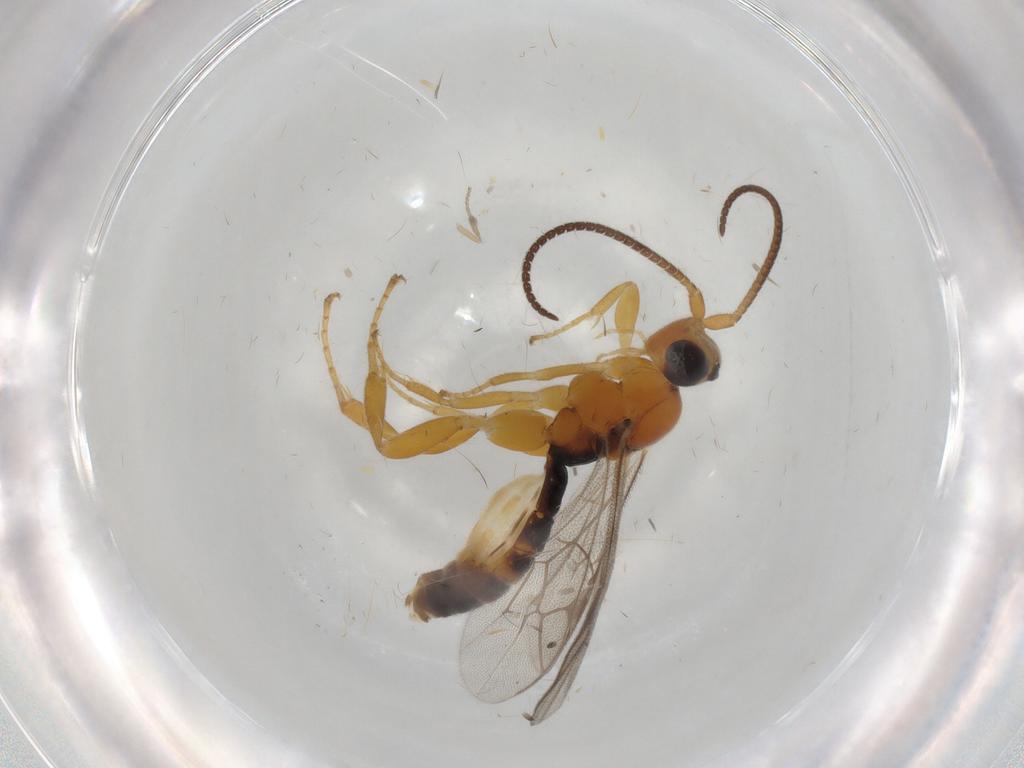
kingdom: Animalia
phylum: Arthropoda
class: Insecta
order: Hymenoptera
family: Ichneumonidae
